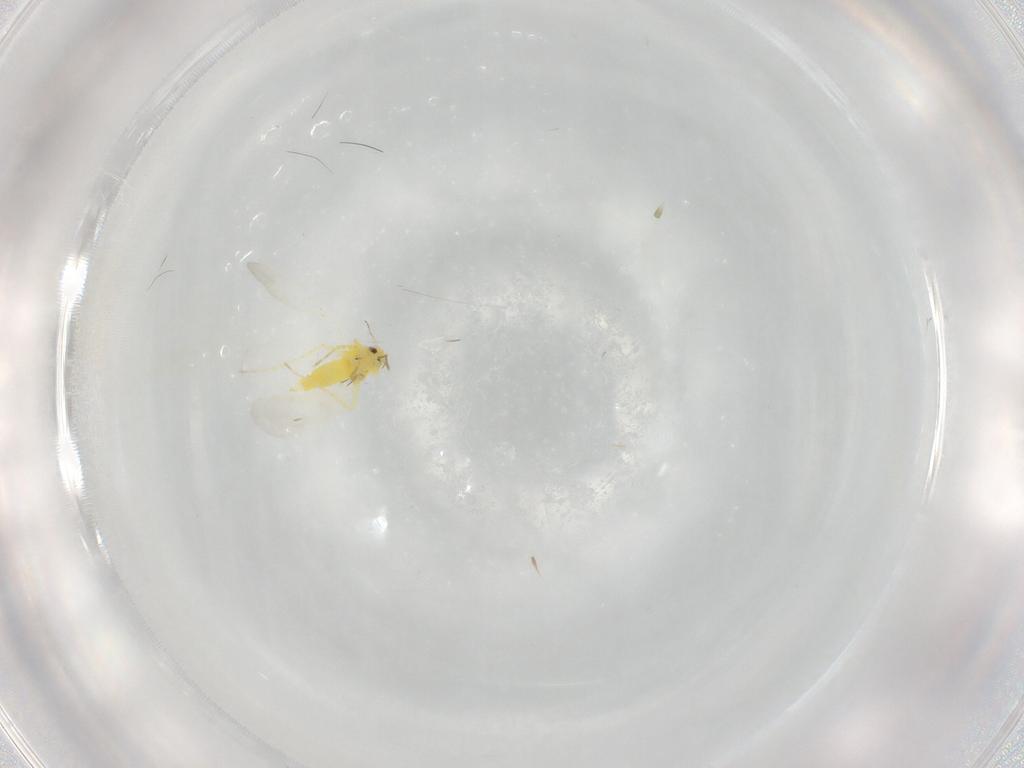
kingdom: Animalia
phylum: Arthropoda
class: Insecta
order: Hemiptera
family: Aleyrodidae
